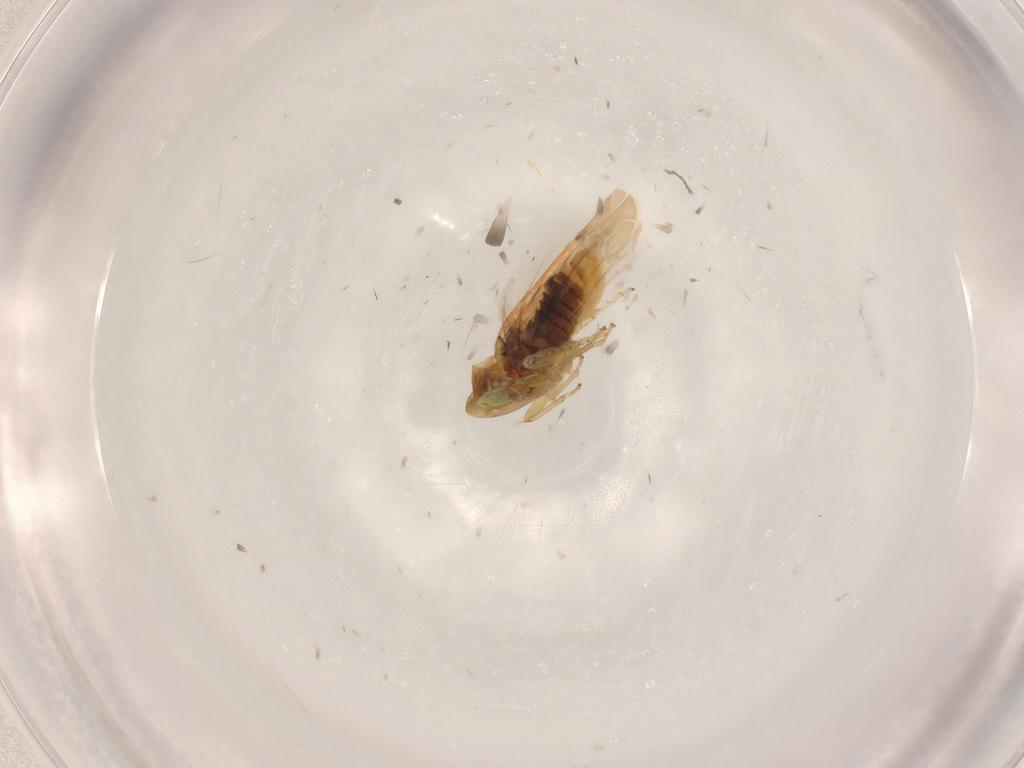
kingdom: Animalia
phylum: Arthropoda
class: Insecta
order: Hemiptera
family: Cicadellidae
